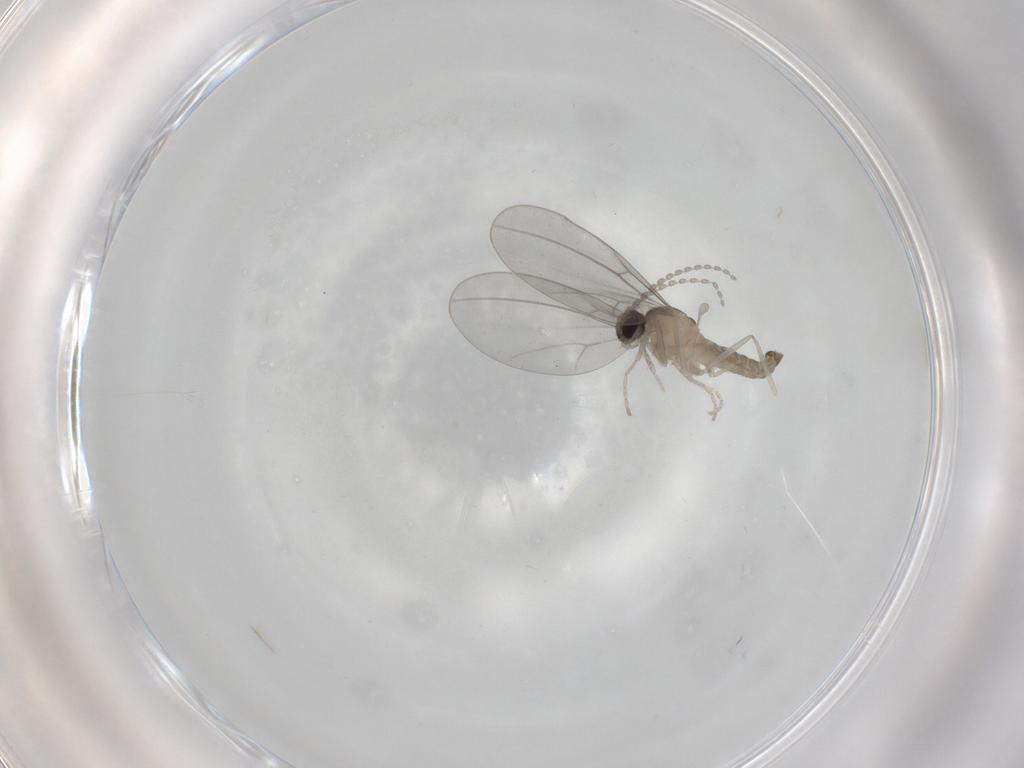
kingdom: Animalia
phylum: Arthropoda
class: Insecta
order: Diptera
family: Cecidomyiidae
